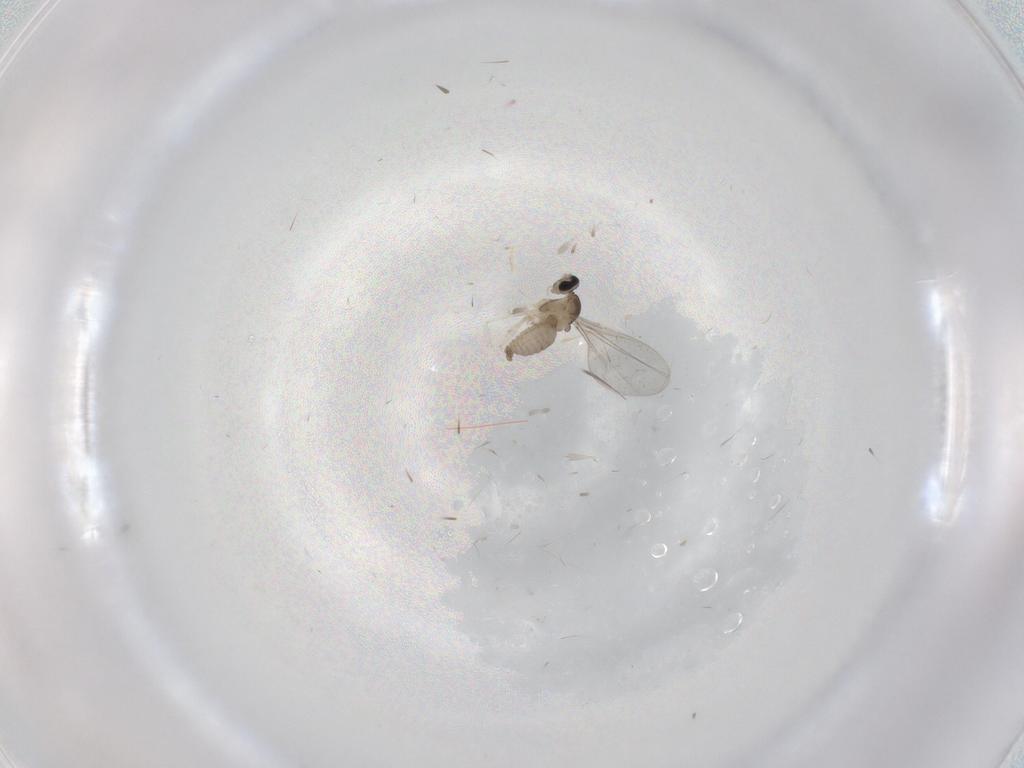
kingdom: Animalia
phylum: Arthropoda
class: Insecta
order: Diptera
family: Cecidomyiidae
